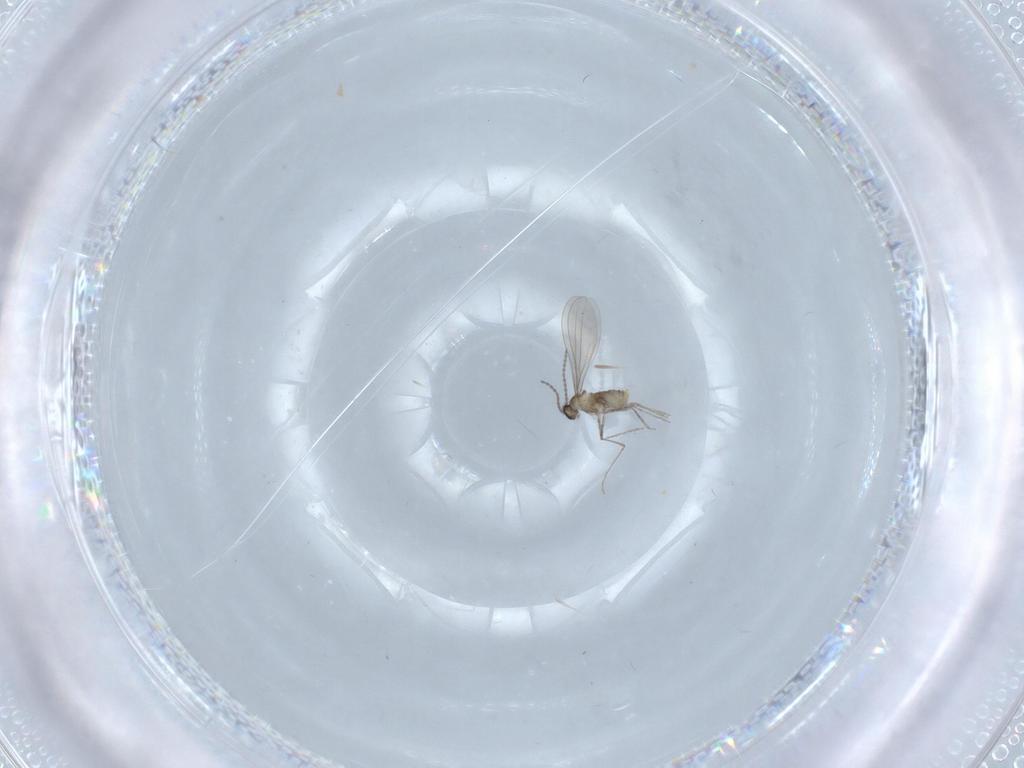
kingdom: Animalia
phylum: Arthropoda
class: Insecta
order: Diptera
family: Cecidomyiidae
